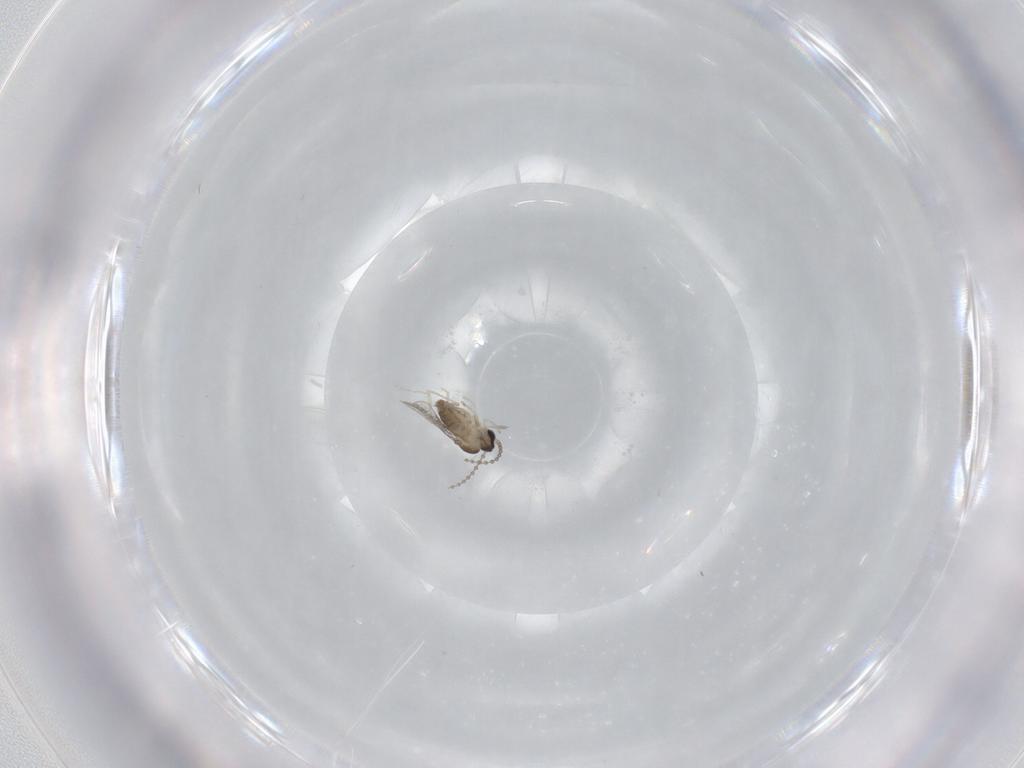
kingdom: Animalia
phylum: Arthropoda
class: Insecta
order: Diptera
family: Cecidomyiidae
